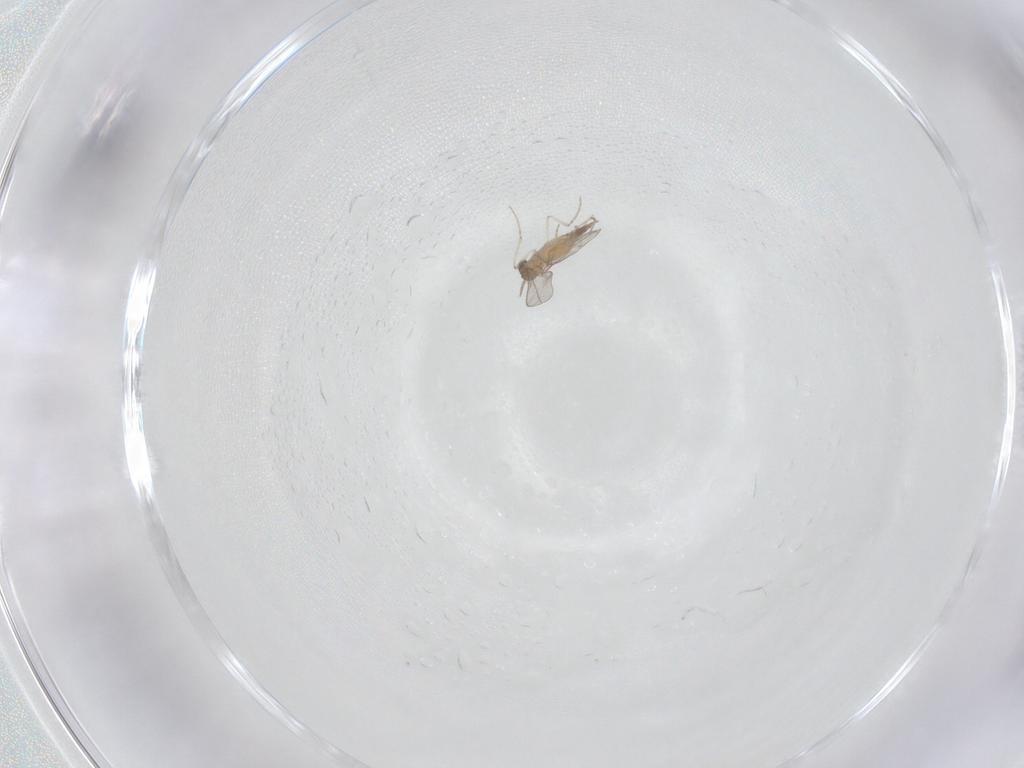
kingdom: Animalia
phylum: Arthropoda
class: Insecta
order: Diptera
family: Cecidomyiidae
